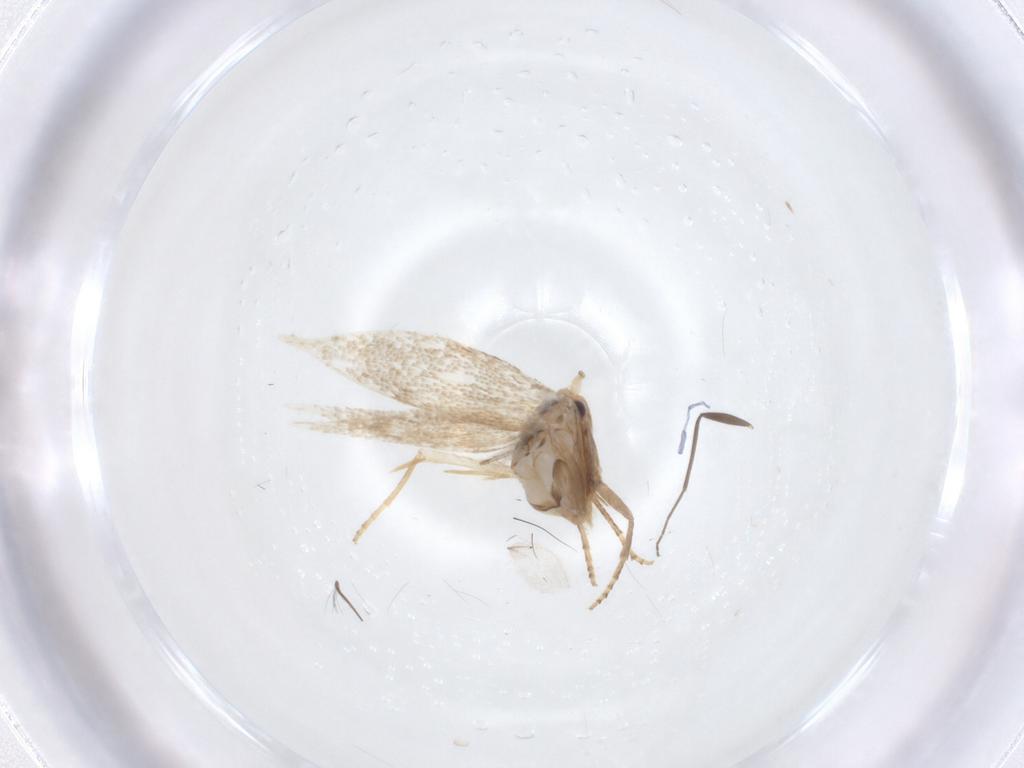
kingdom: Animalia
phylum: Arthropoda
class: Insecta
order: Lepidoptera
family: Bucculatricidae
